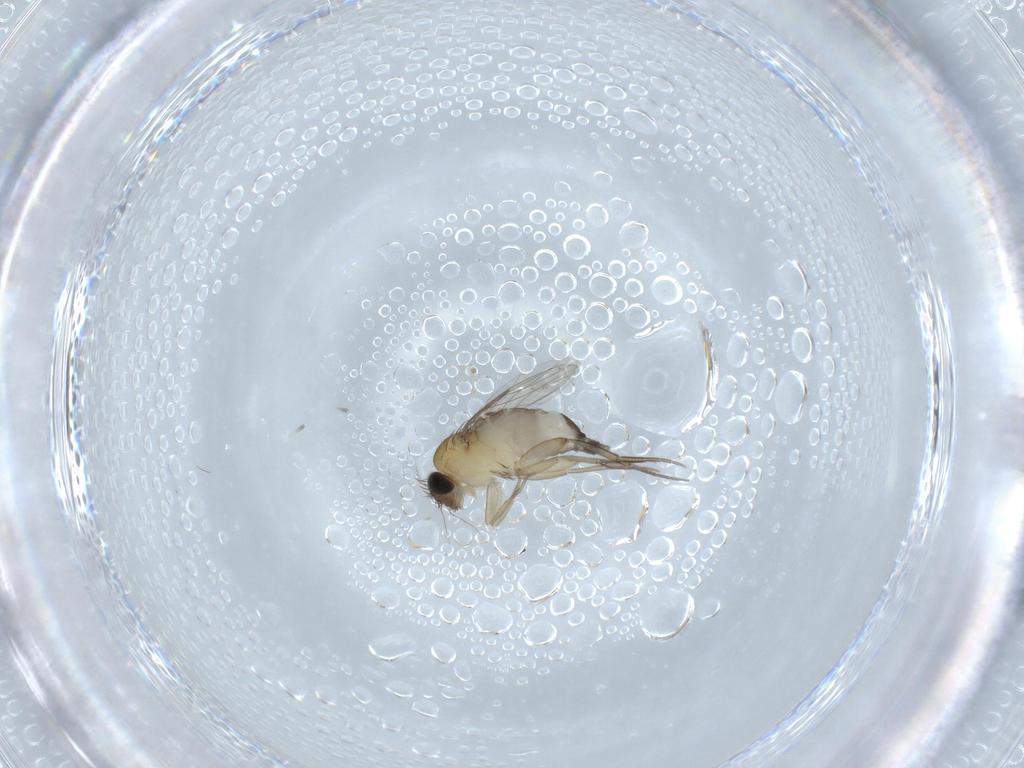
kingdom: Animalia
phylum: Arthropoda
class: Insecta
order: Diptera
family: Phoridae
